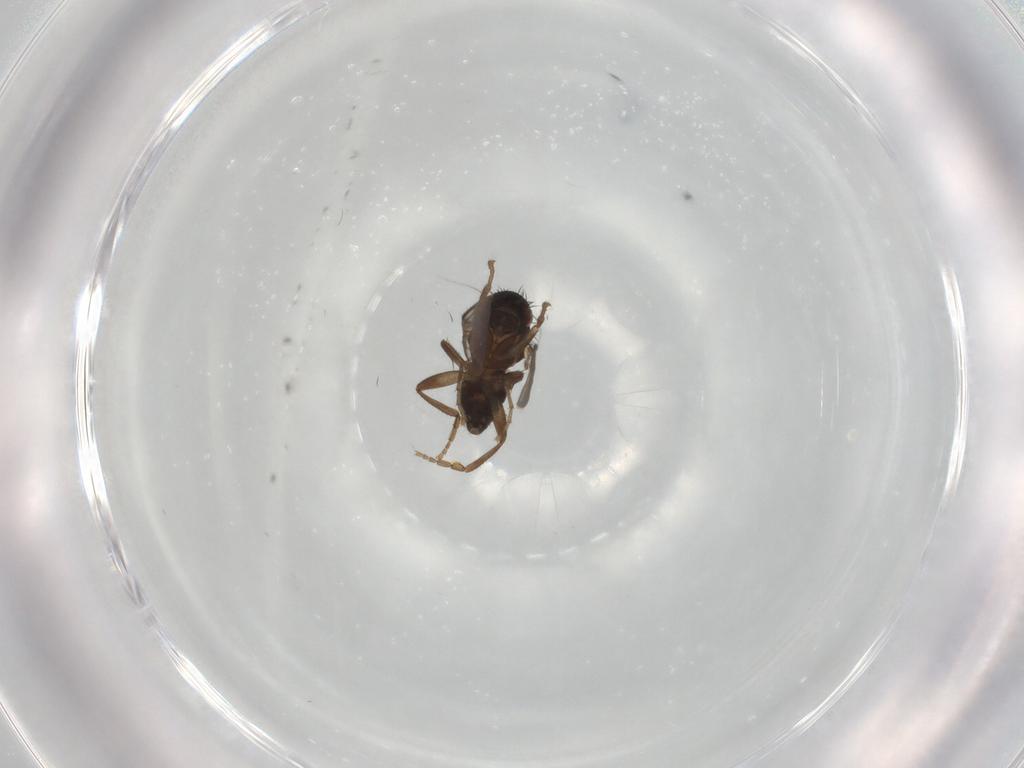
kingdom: Animalia
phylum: Arthropoda
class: Insecta
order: Diptera
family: Sphaeroceridae
